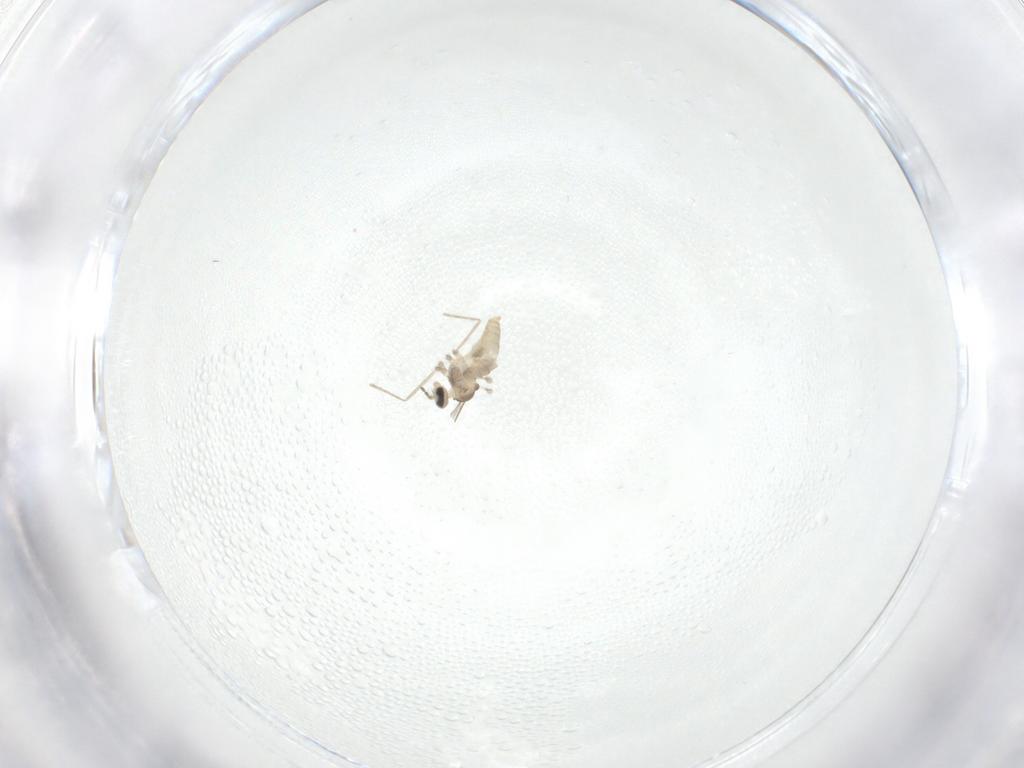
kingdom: Animalia
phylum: Arthropoda
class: Insecta
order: Diptera
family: Cecidomyiidae
